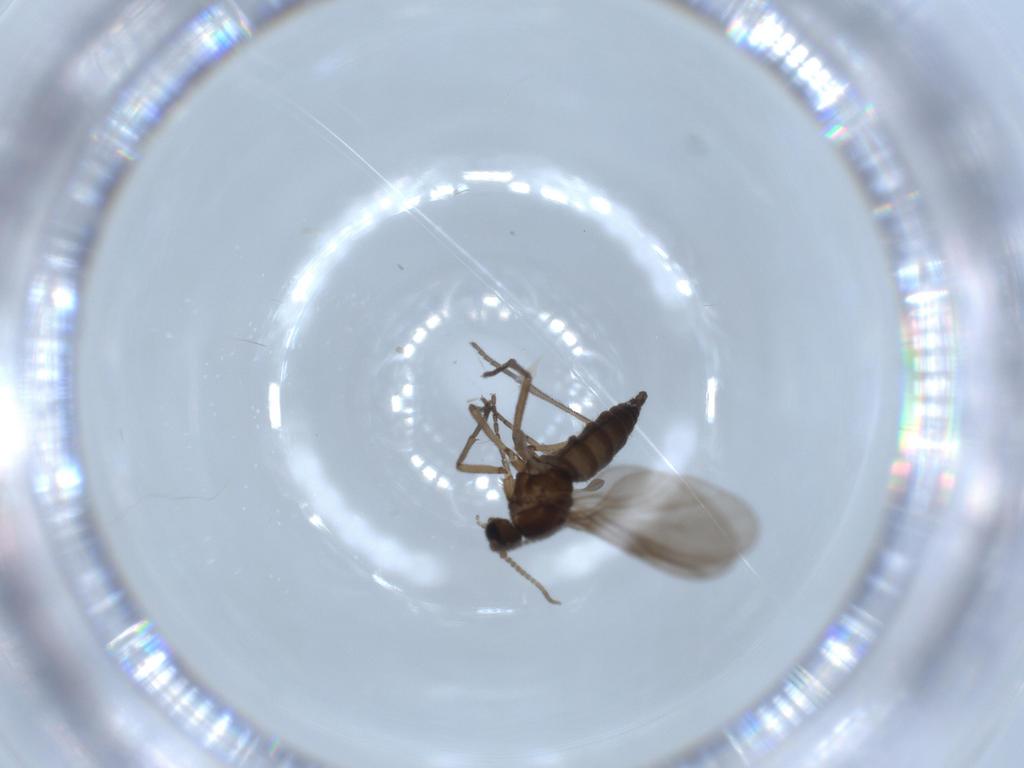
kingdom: Animalia
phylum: Arthropoda
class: Insecta
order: Diptera
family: Sciaridae
